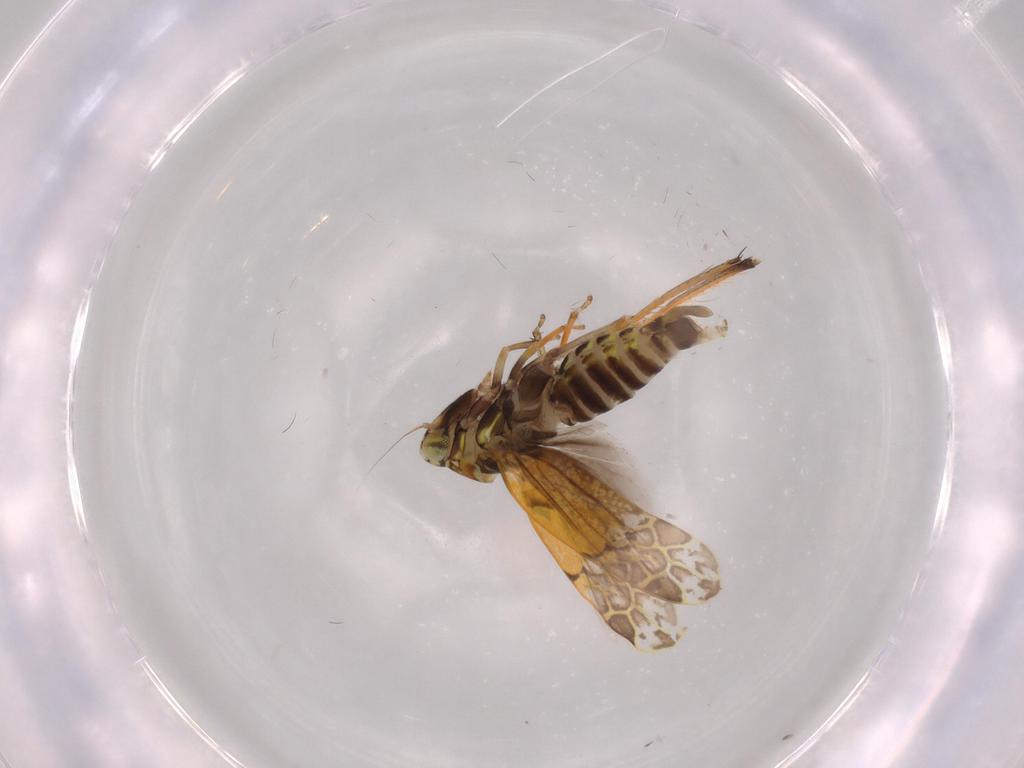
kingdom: Animalia
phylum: Arthropoda
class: Insecta
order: Hemiptera
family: Cicadellidae
